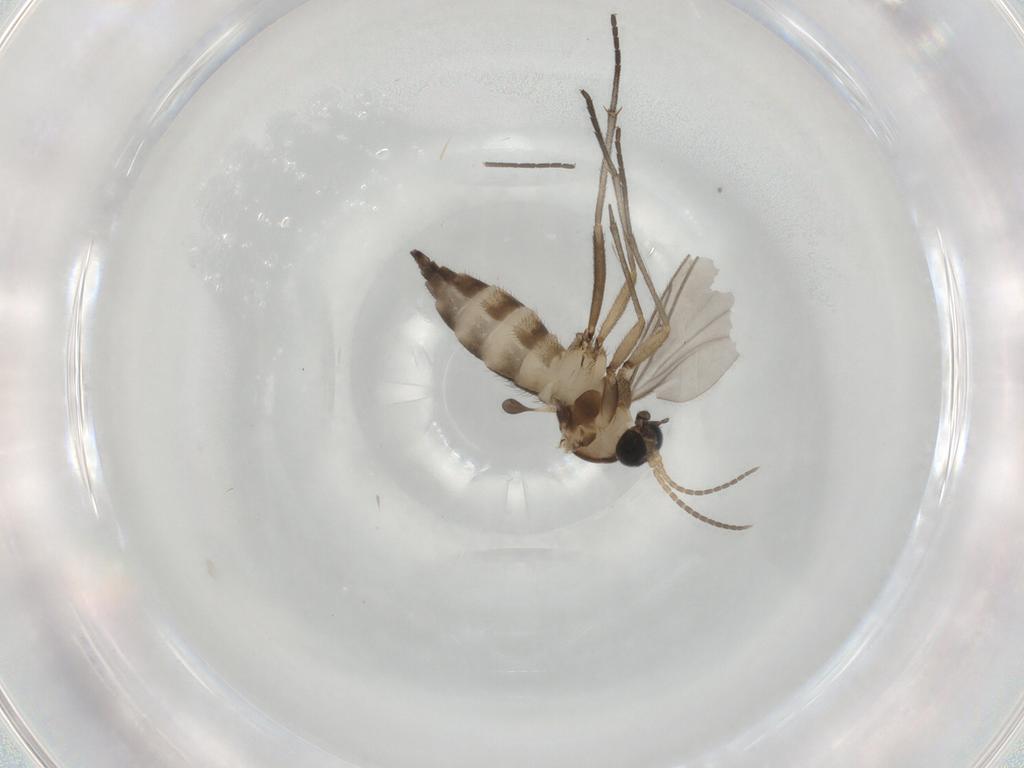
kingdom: Animalia
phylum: Arthropoda
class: Insecta
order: Diptera
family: Sciaridae
